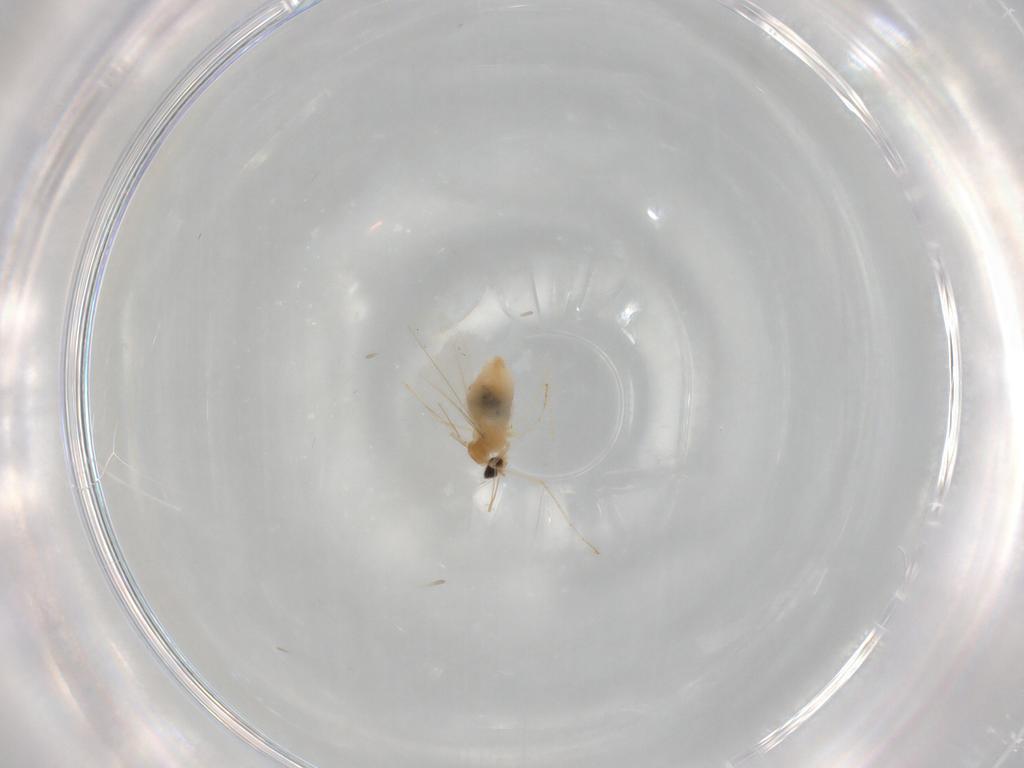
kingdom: Animalia
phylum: Arthropoda
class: Insecta
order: Diptera
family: Cecidomyiidae
